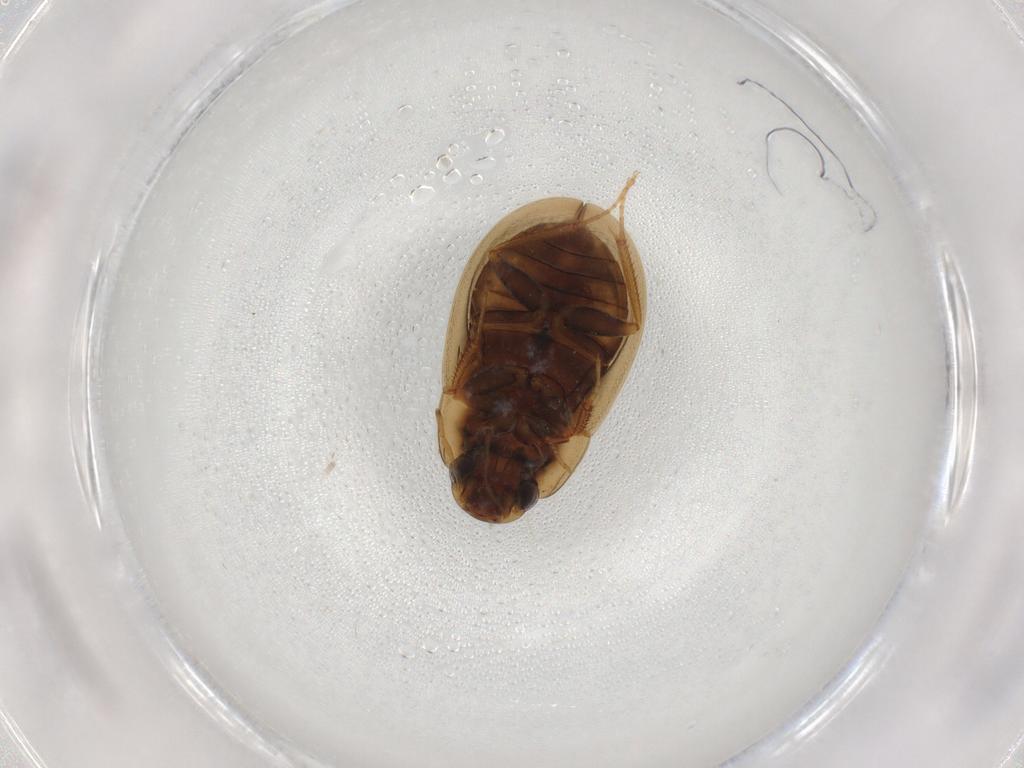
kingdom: Animalia
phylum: Arthropoda
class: Insecta
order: Coleoptera
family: Hydrophilidae
